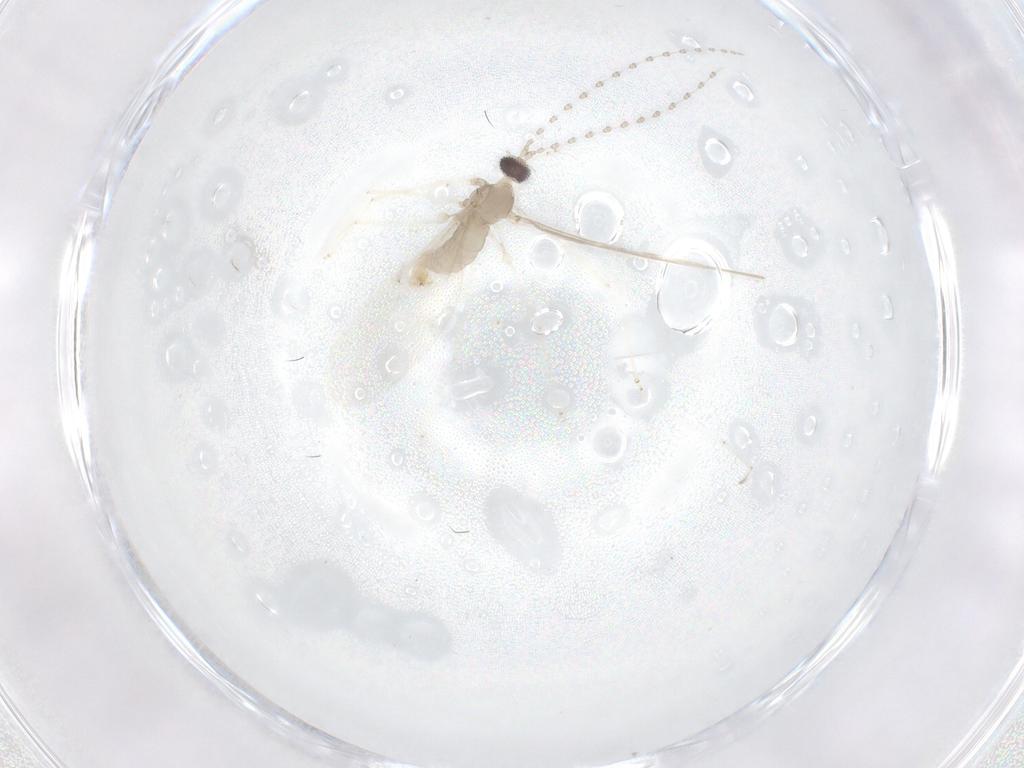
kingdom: Animalia
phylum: Arthropoda
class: Insecta
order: Diptera
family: Cecidomyiidae
